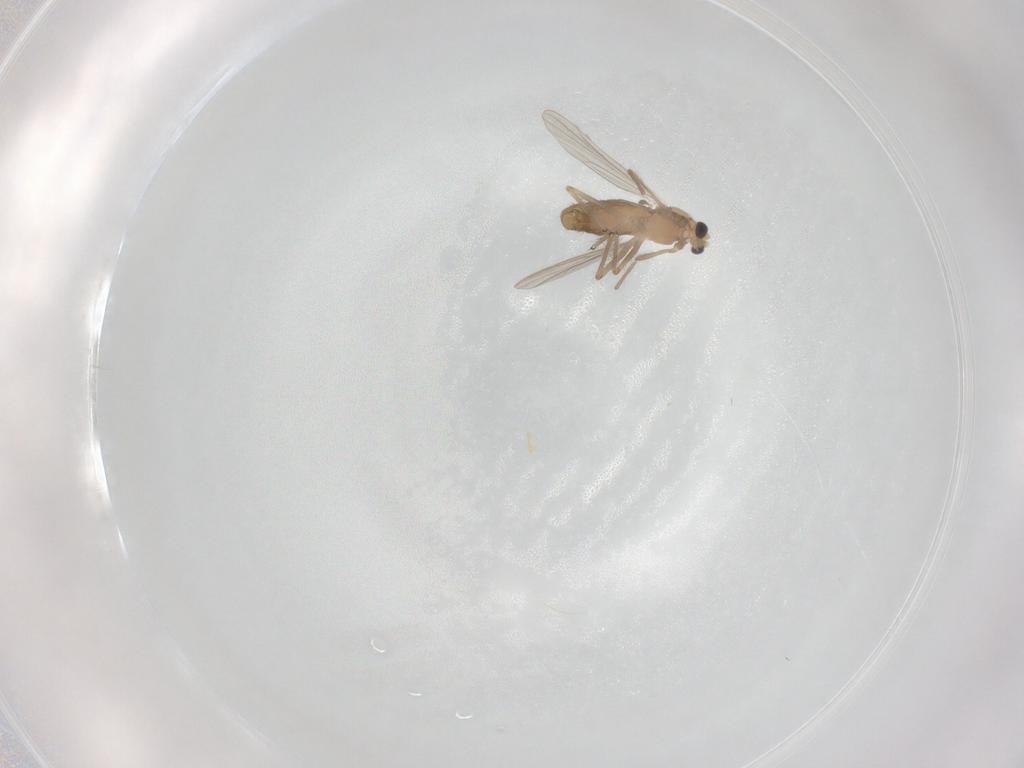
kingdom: Animalia
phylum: Arthropoda
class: Insecta
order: Diptera
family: Chironomidae
